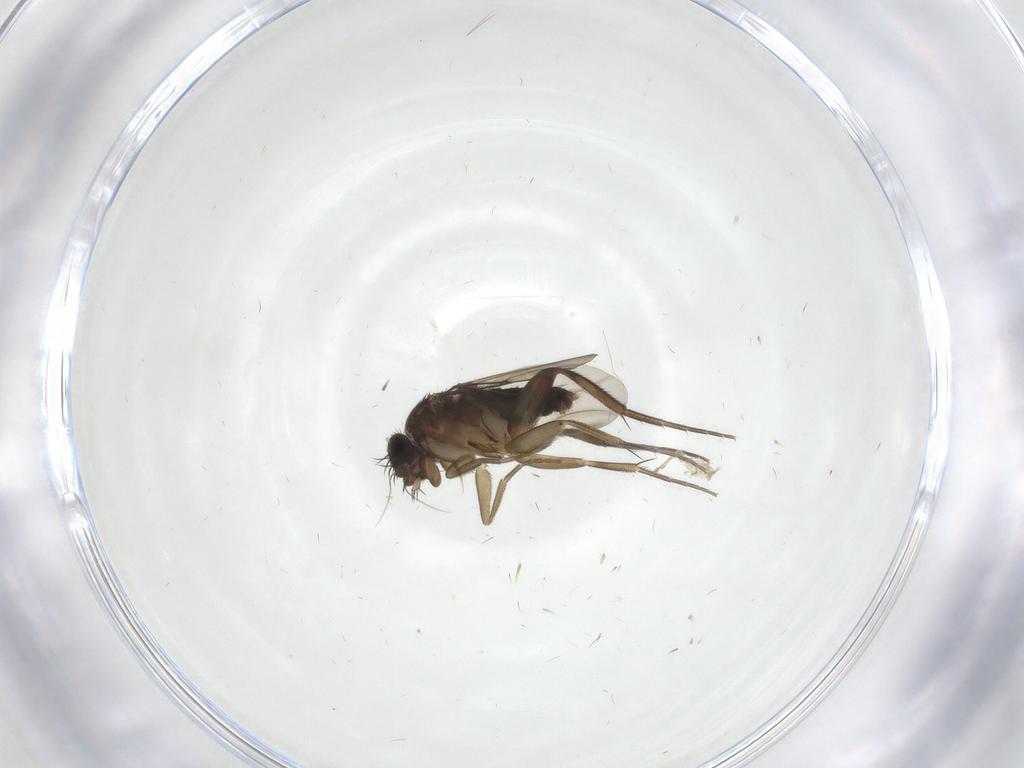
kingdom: Animalia
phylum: Arthropoda
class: Insecta
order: Diptera
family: Phoridae
